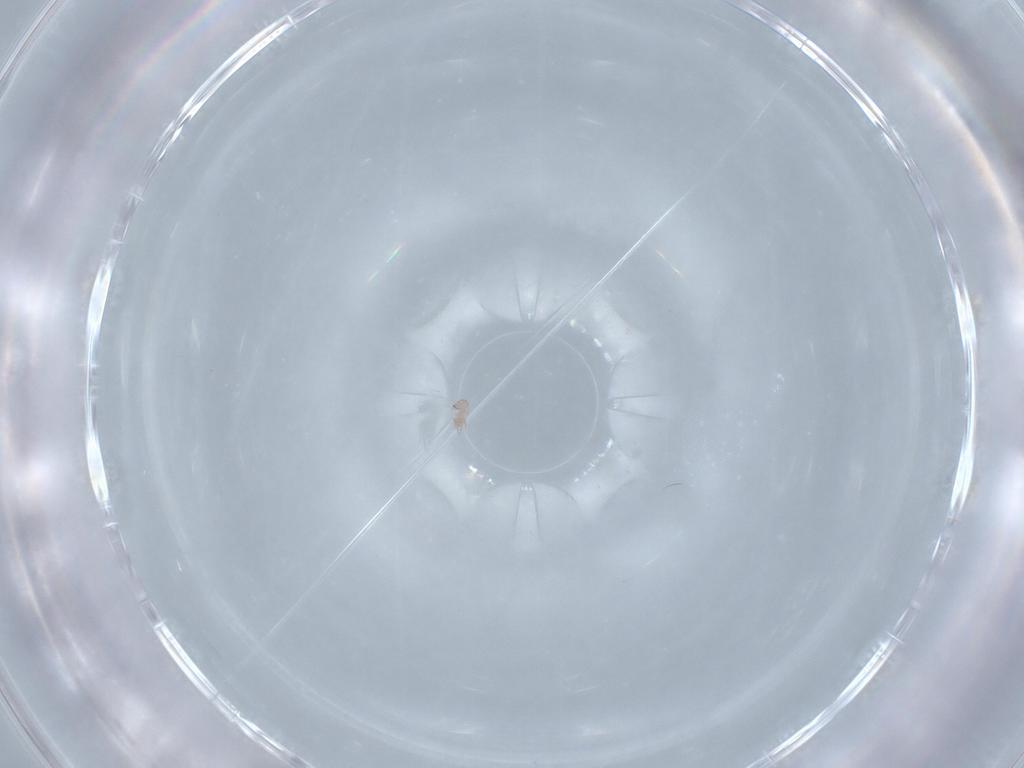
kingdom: Animalia
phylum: Arthropoda
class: Arachnida
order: Sarcoptiformes
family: Acaridae
